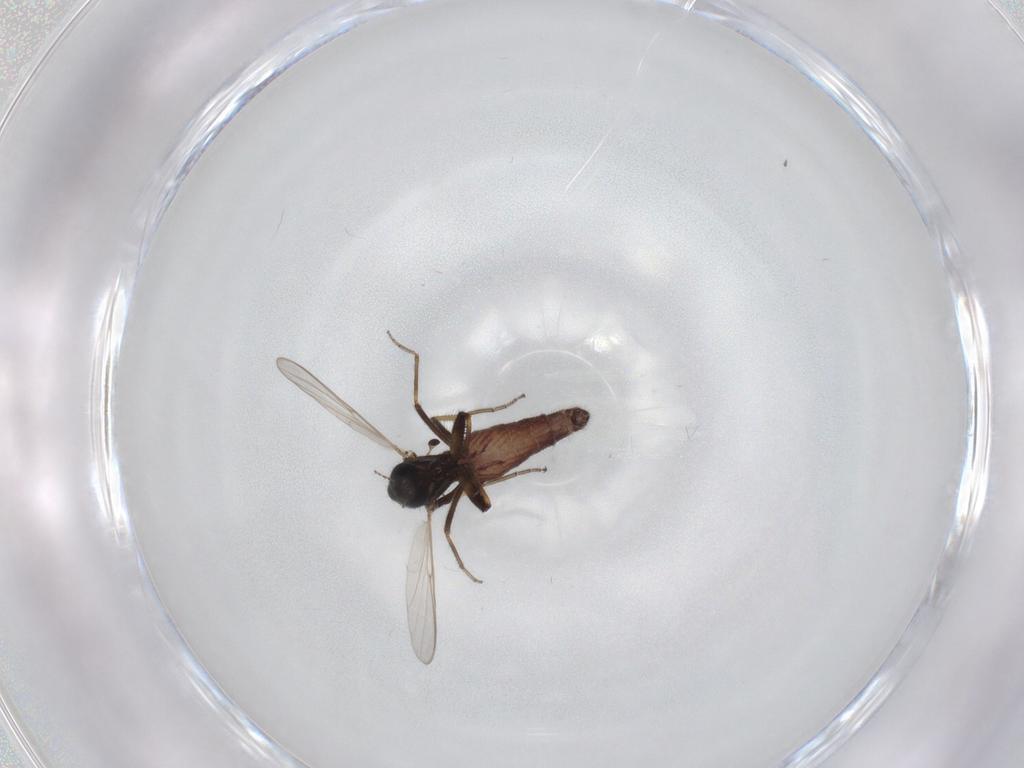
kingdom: Animalia
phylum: Arthropoda
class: Insecta
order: Diptera
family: Ceratopogonidae
